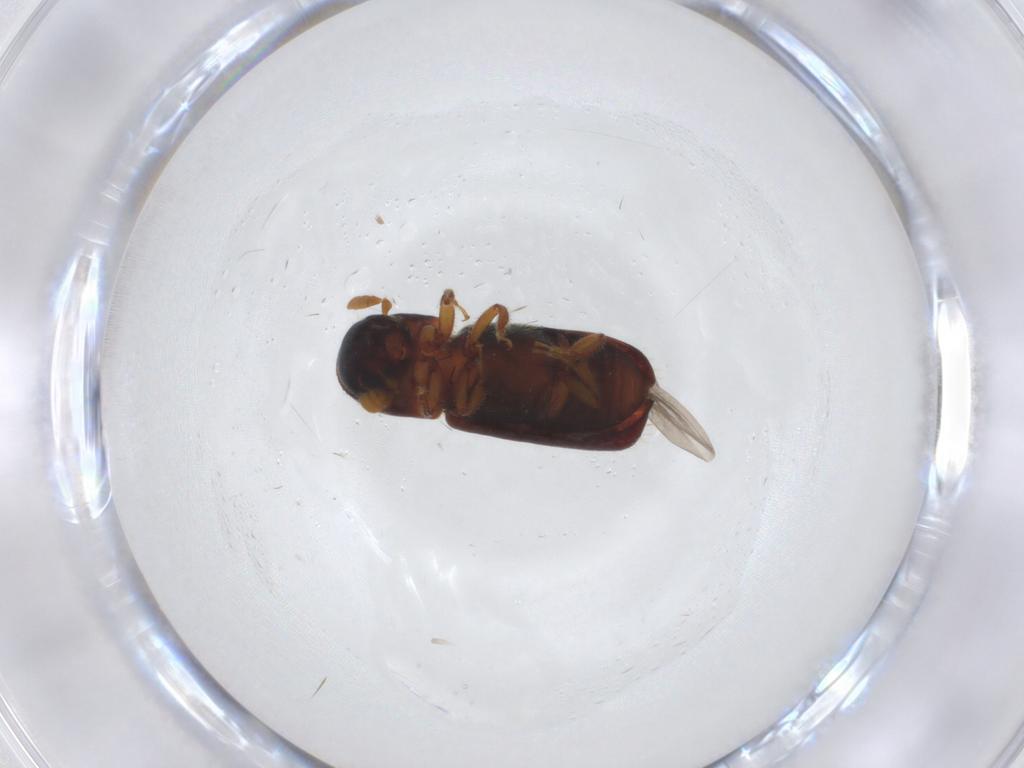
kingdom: Animalia
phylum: Arthropoda
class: Insecta
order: Coleoptera
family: Curculionidae
